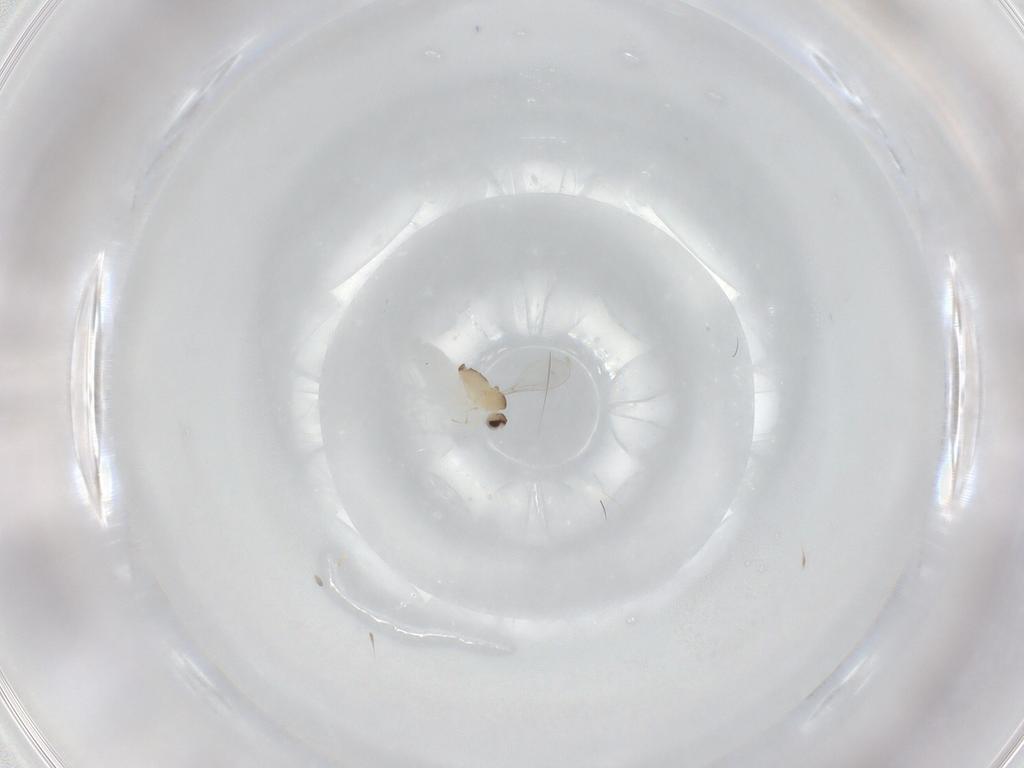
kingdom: Animalia
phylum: Arthropoda
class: Insecta
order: Diptera
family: Cecidomyiidae
